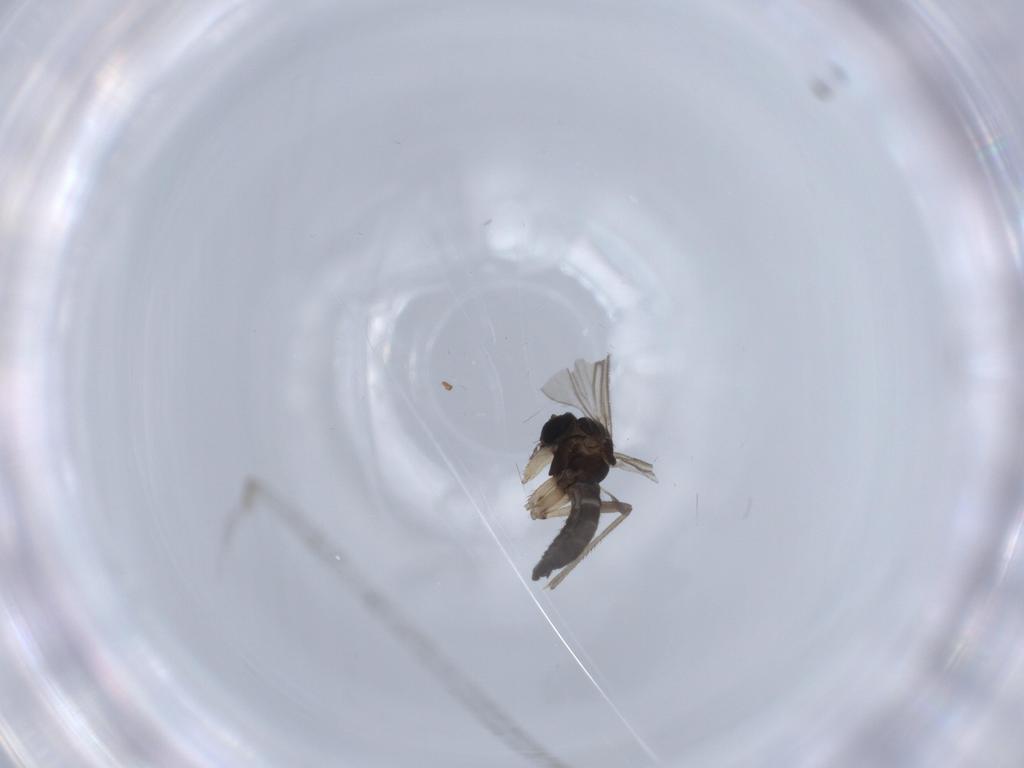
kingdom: Animalia
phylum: Arthropoda
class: Insecta
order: Diptera
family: Sciaridae
